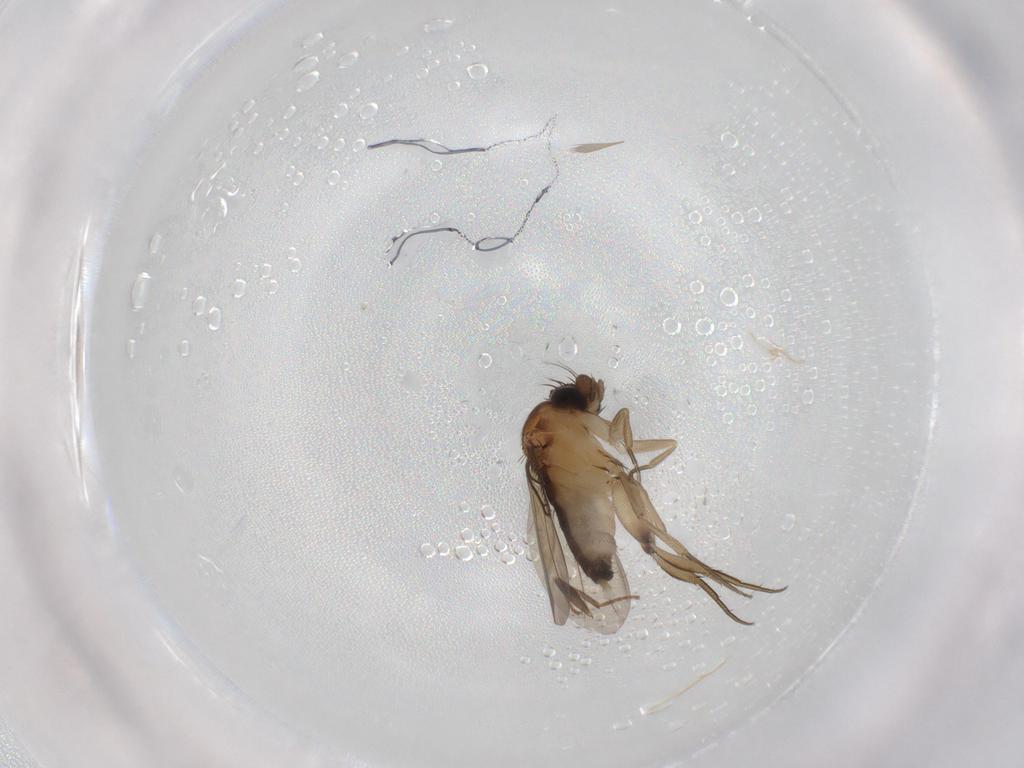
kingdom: Animalia
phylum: Arthropoda
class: Insecta
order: Diptera
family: Phoridae
